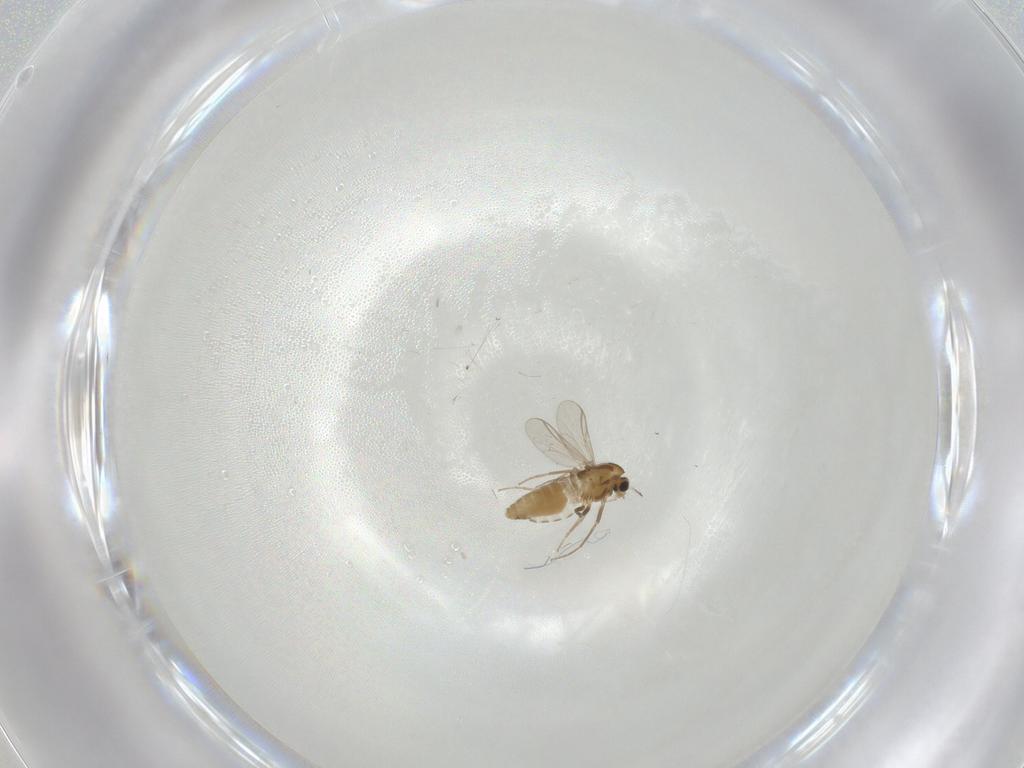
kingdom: Animalia
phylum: Arthropoda
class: Insecta
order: Diptera
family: Chironomidae
